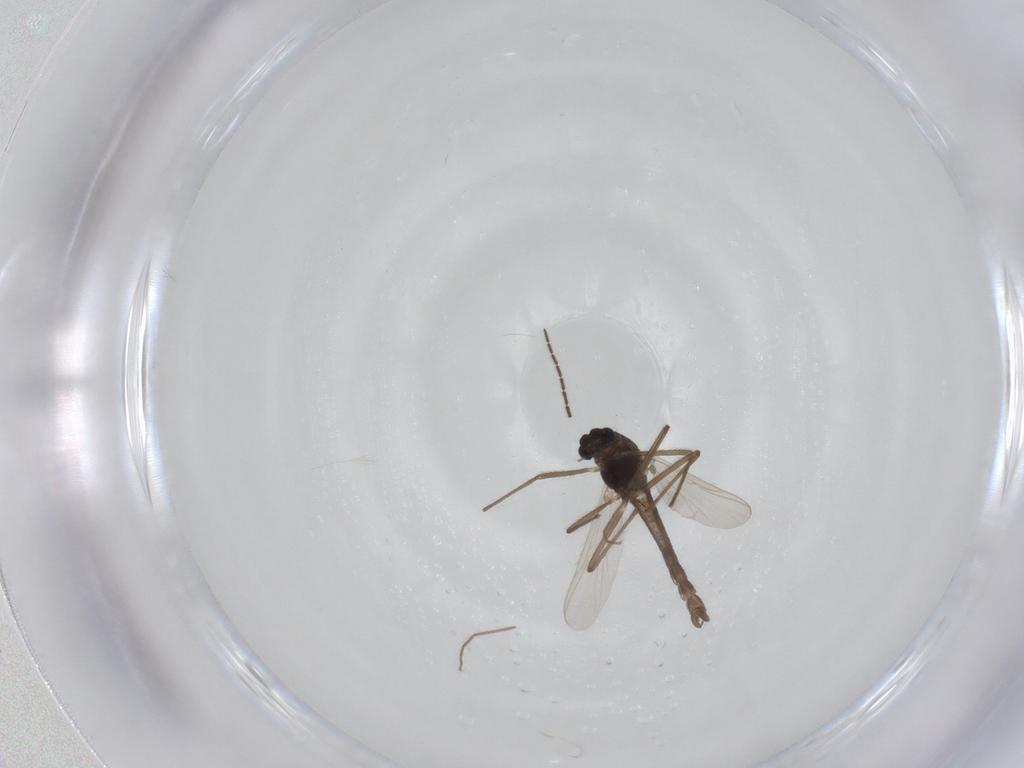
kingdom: Animalia
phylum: Arthropoda
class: Insecta
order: Diptera
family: Chironomidae
